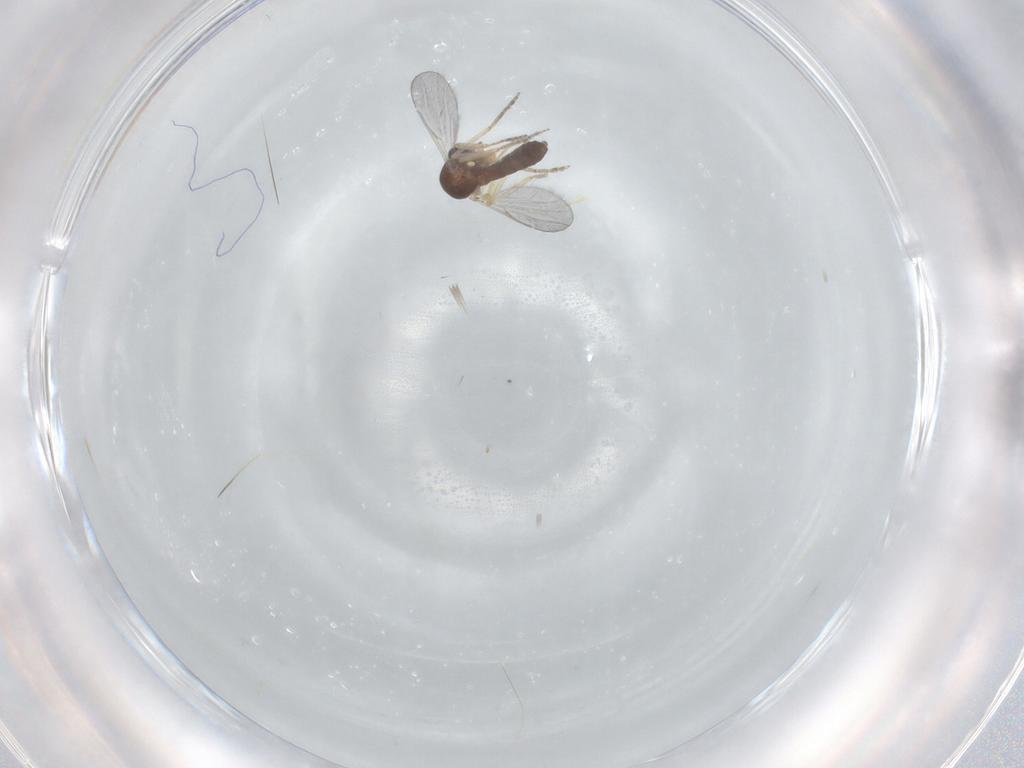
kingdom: Animalia
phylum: Arthropoda
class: Insecta
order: Diptera
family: Ceratopogonidae
